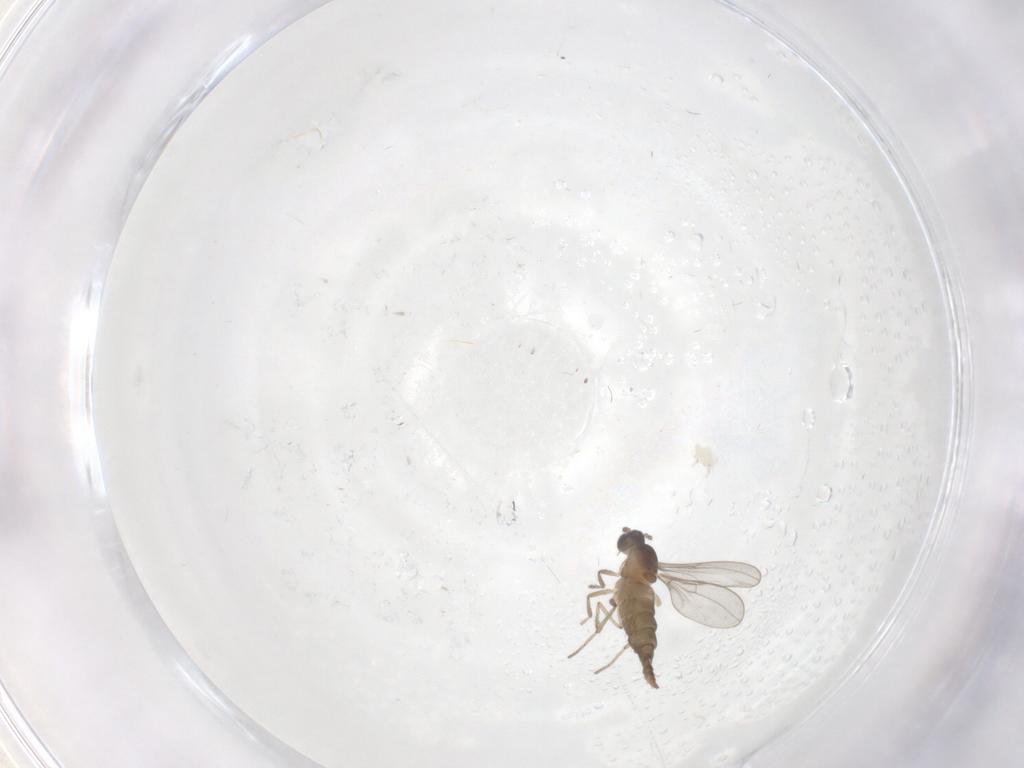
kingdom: Animalia
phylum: Arthropoda
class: Insecta
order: Diptera
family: Cecidomyiidae
